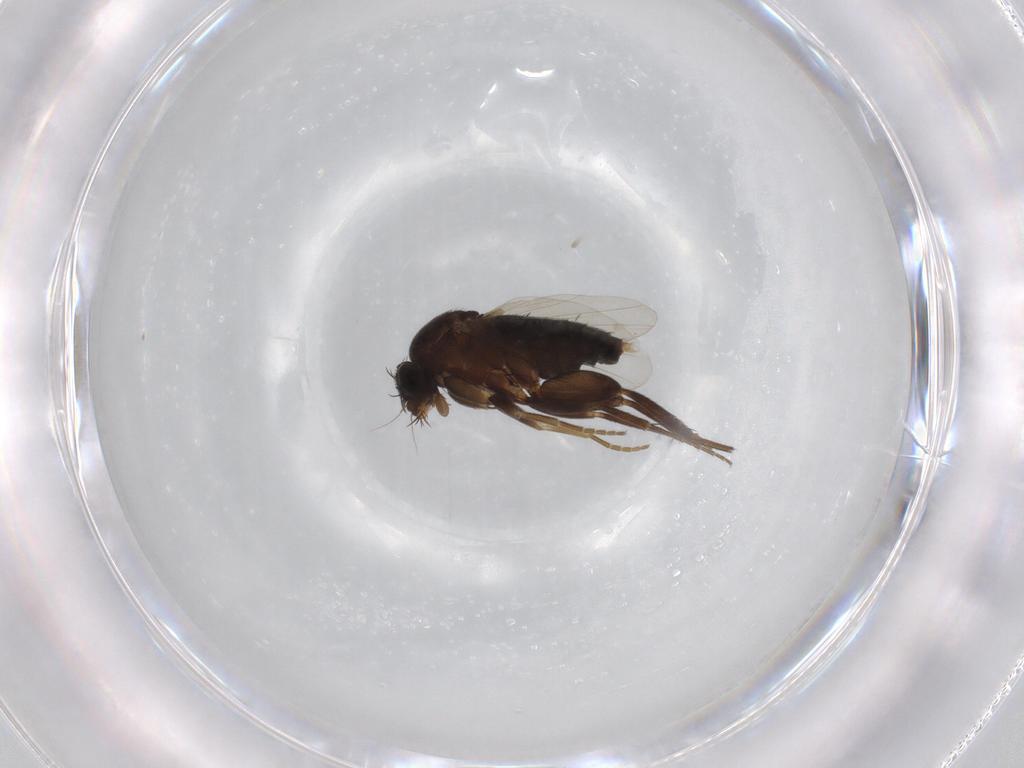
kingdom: Animalia
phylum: Arthropoda
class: Insecta
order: Diptera
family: Phoridae
